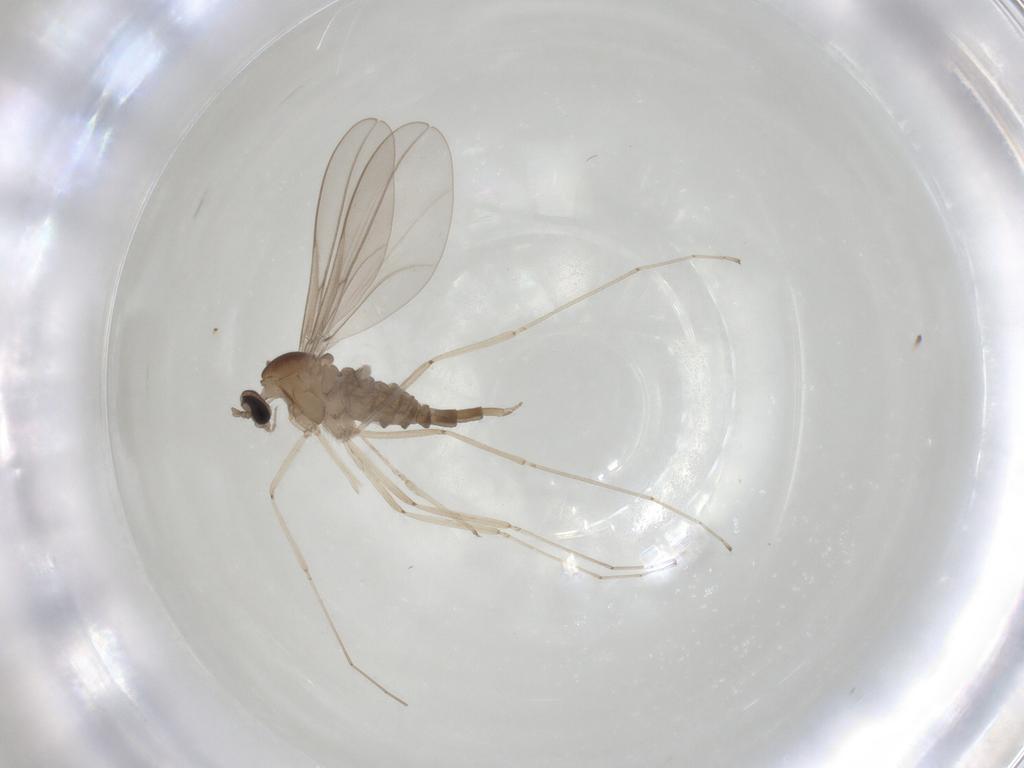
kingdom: Animalia
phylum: Arthropoda
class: Insecta
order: Diptera
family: Cecidomyiidae
